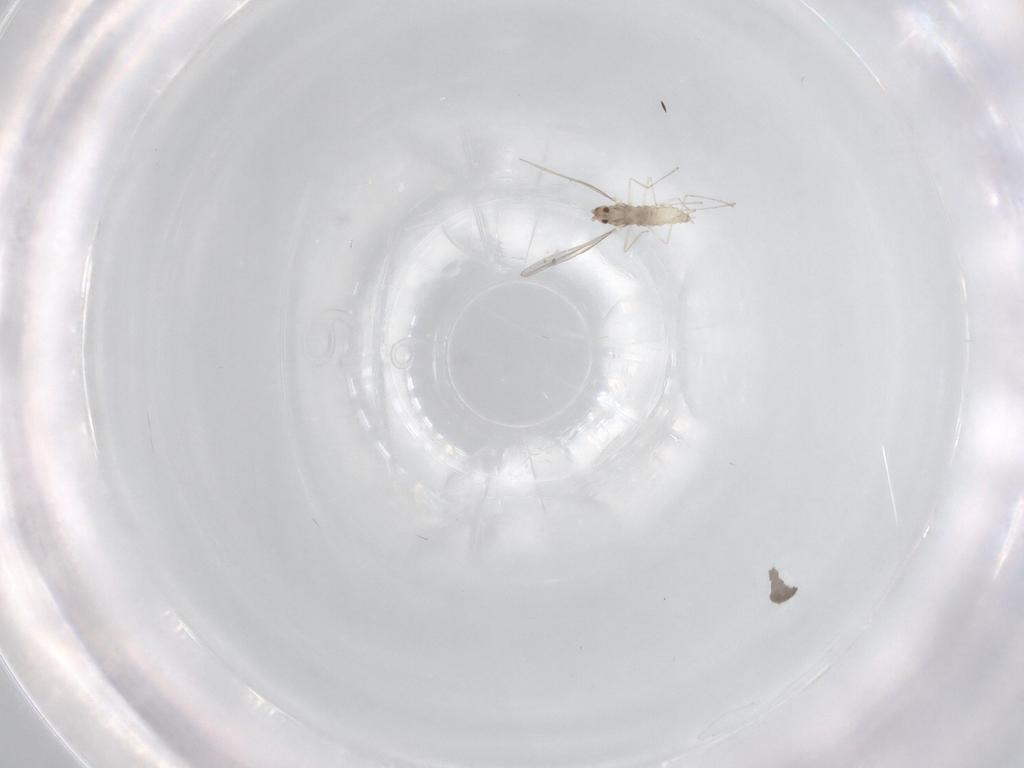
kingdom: Animalia
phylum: Arthropoda
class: Insecta
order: Diptera
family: Cecidomyiidae
